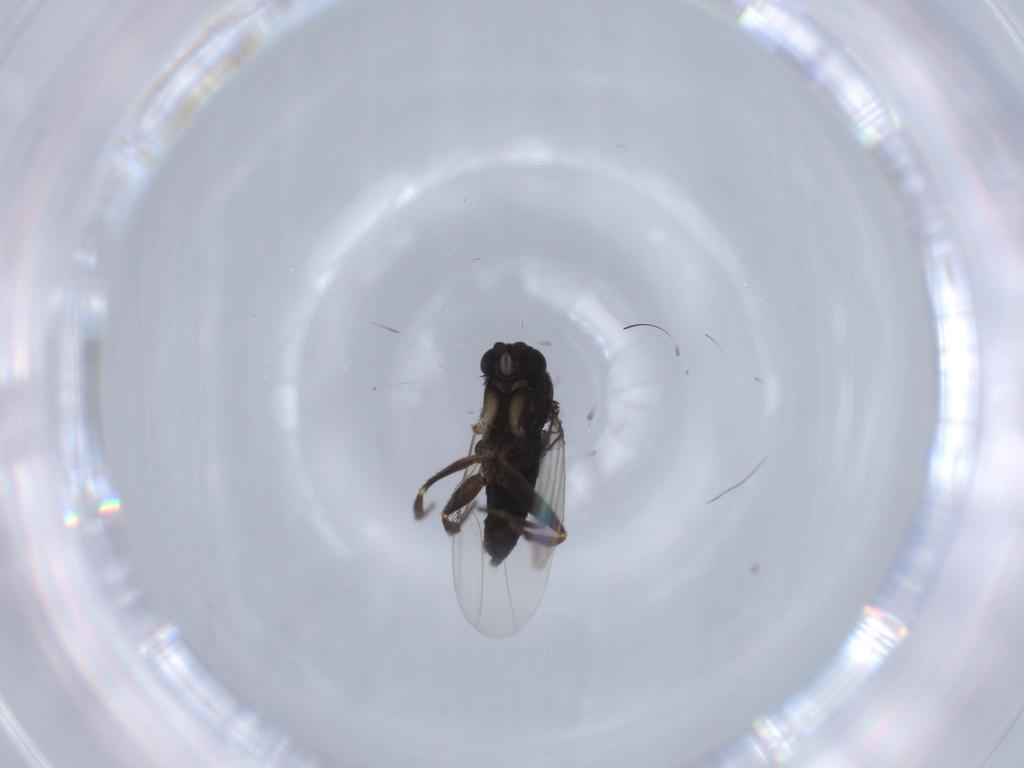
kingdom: Animalia
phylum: Arthropoda
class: Insecta
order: Diptera
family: Phoridae
